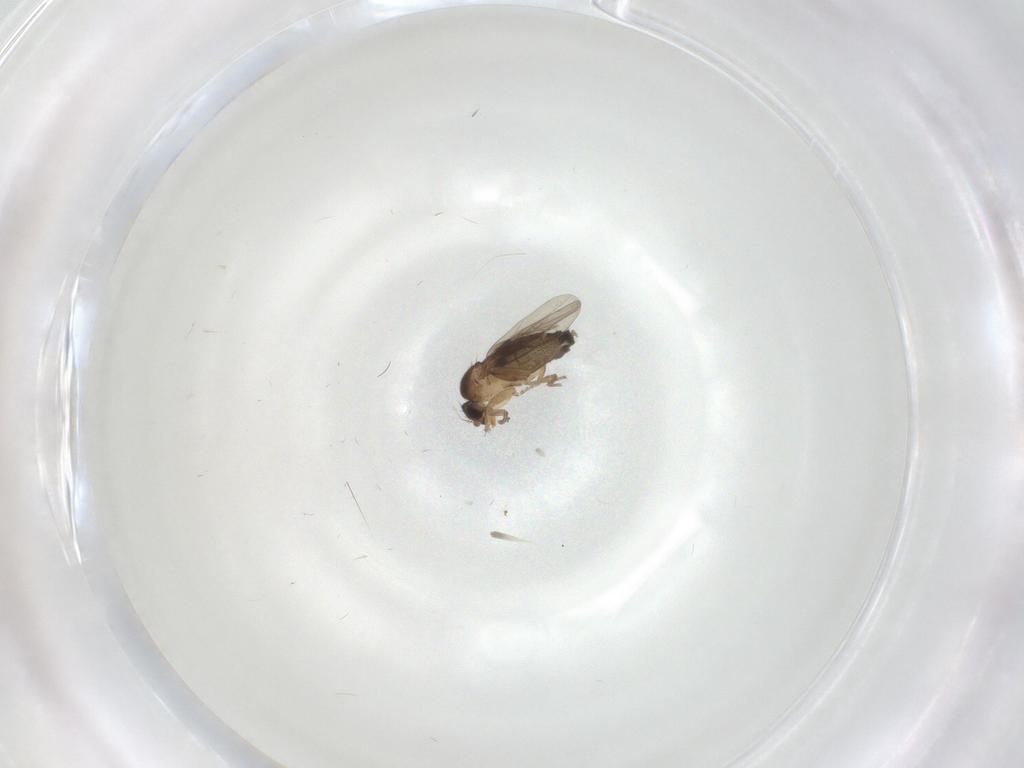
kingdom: Animalia
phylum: Arthropoda
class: Insecta
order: Diptera
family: Phoridae
